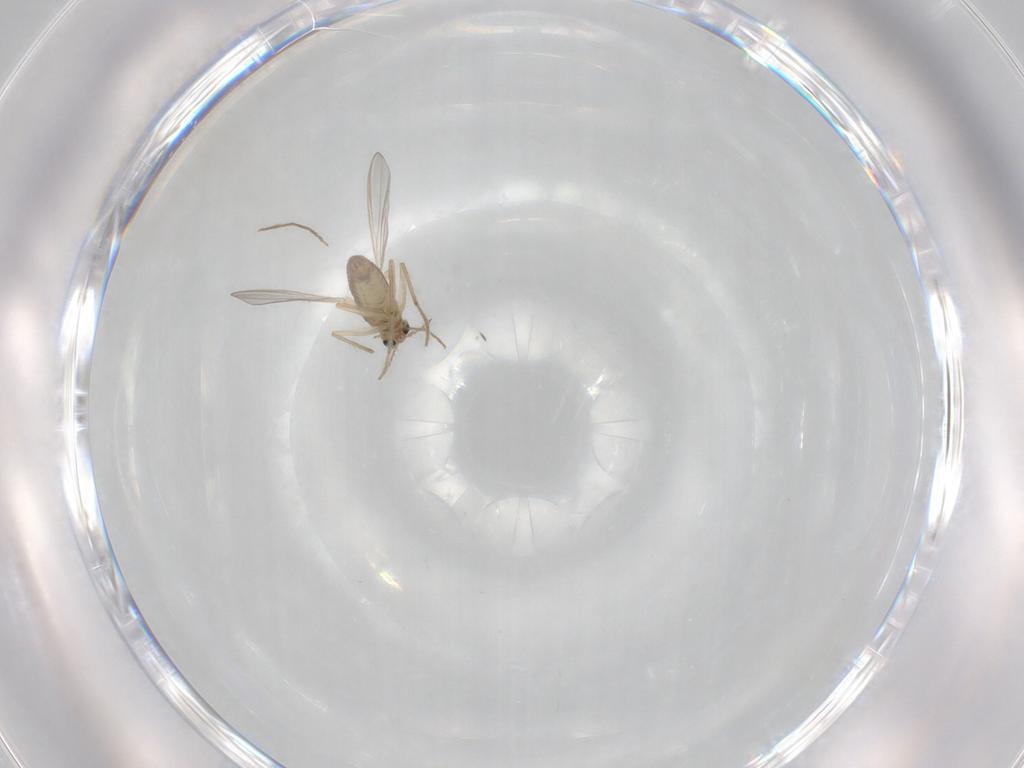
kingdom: Animalia
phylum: Arthropoda
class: Insecta
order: Diptera
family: Chironomidae
